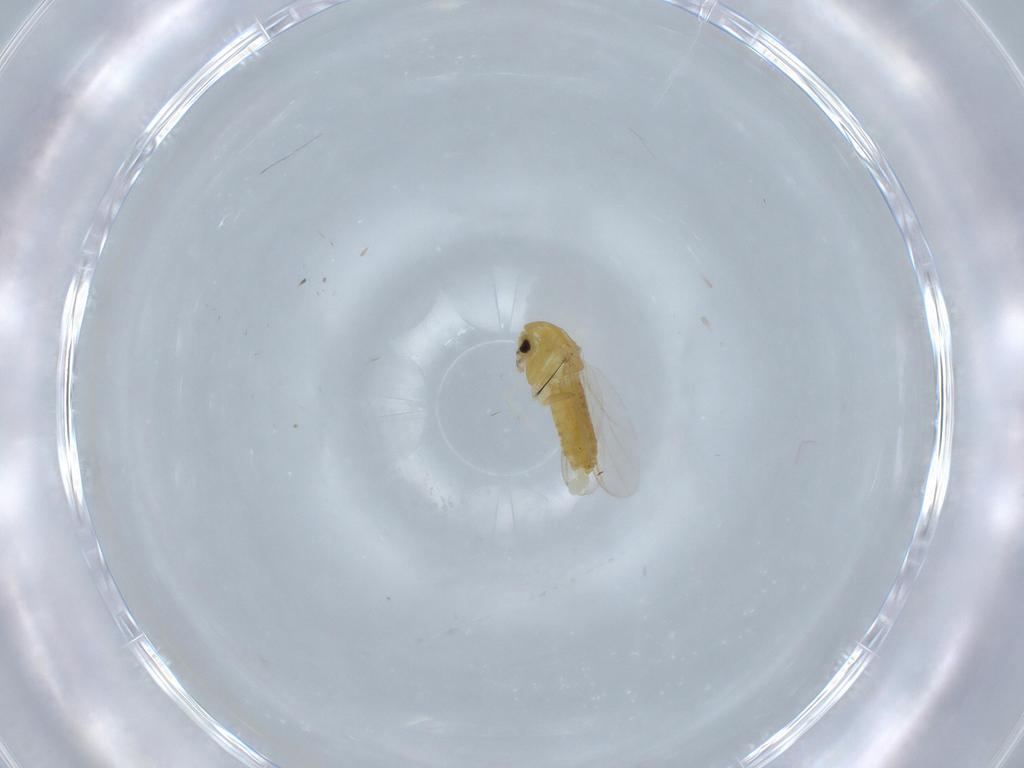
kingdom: Animalia
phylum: Arthropoda
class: Insecta
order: Diptera
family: Chironomidae
